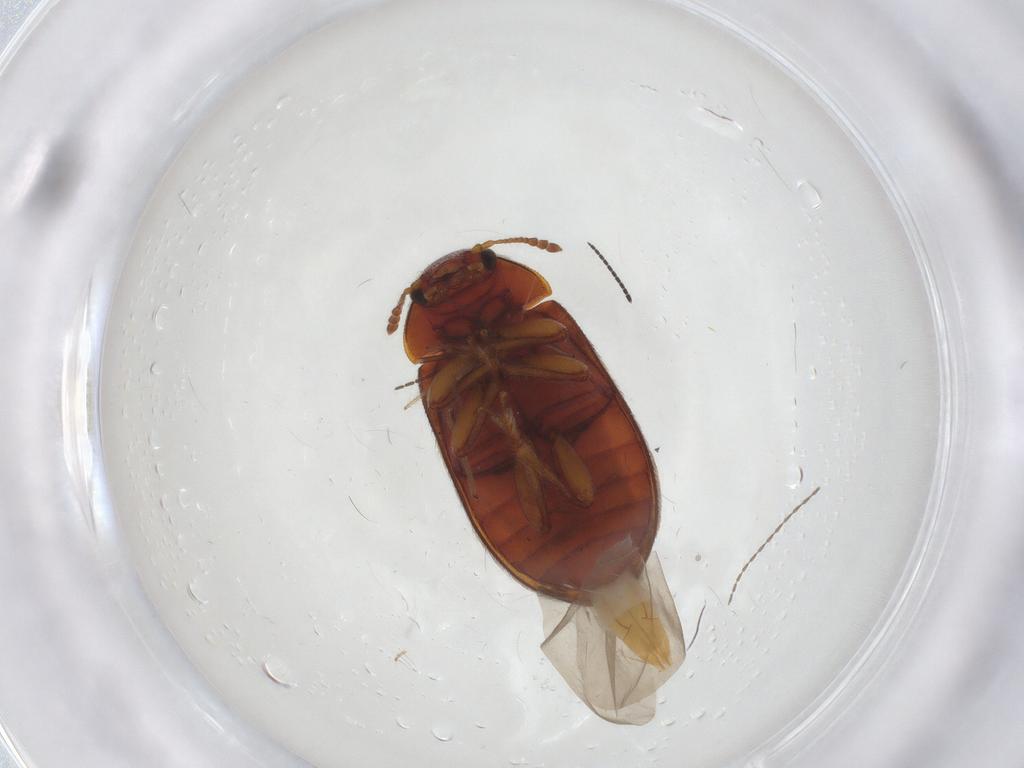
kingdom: Animalia
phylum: Arthropoda
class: Insecta
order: Coleoptera
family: Byturidae
